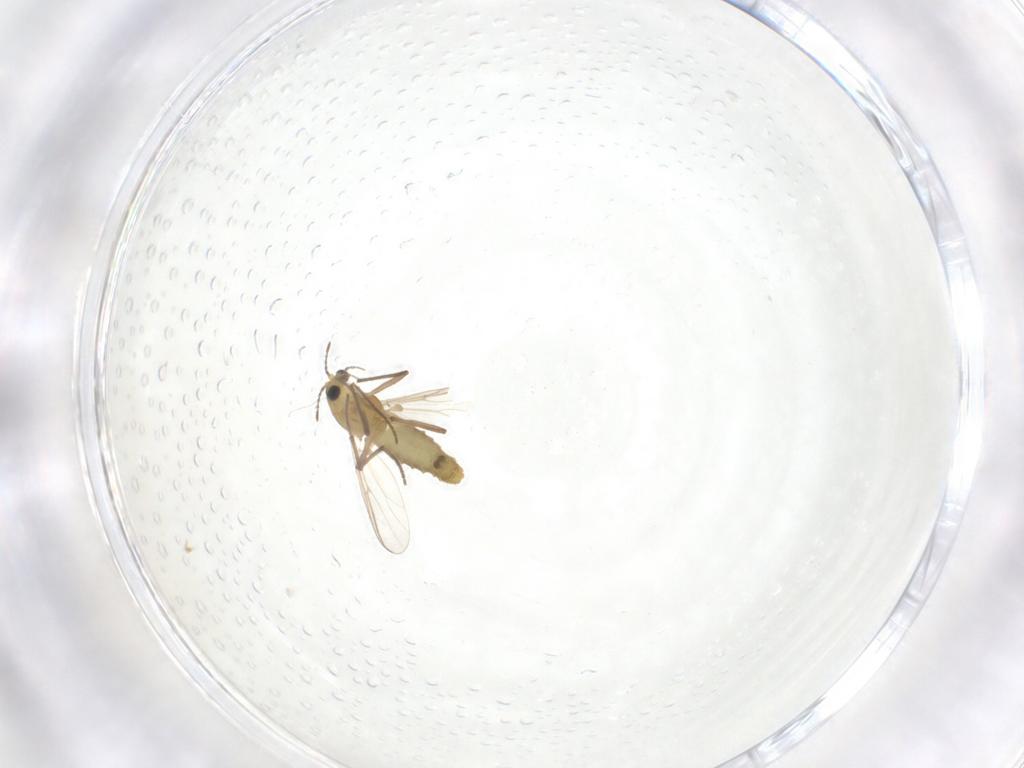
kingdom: Animalia
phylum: Arthropoda
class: Insecta
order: Diptera
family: Chironomidae
